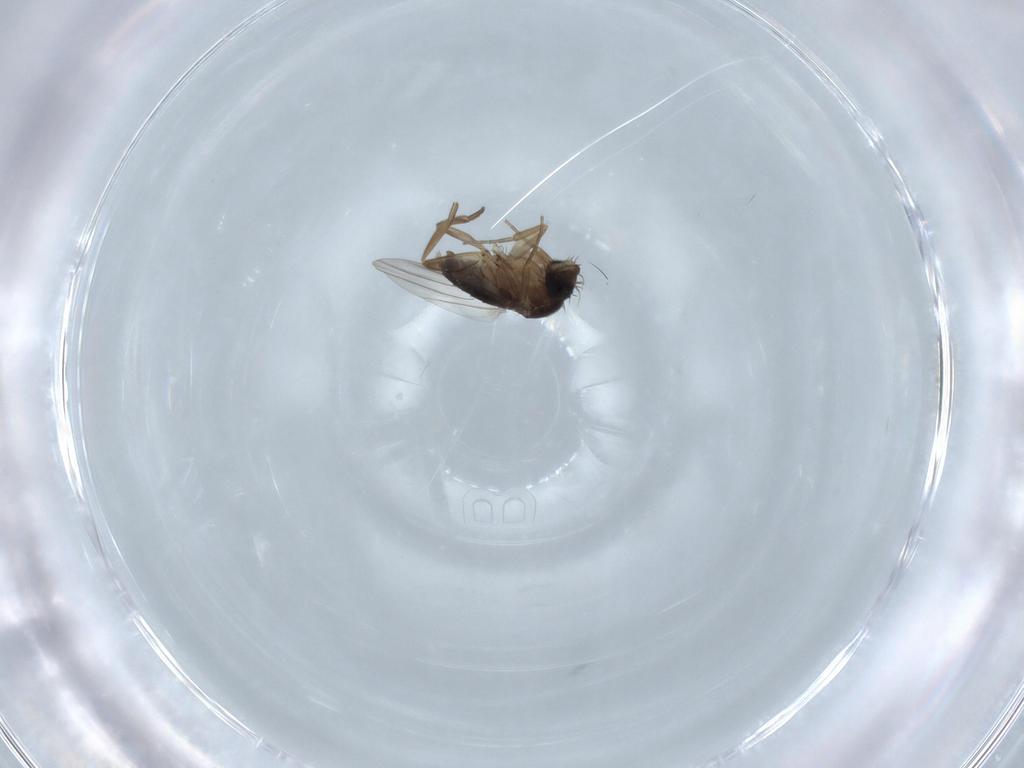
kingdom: Animalia
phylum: Arthropoda
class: Insecta
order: Diptera
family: Phoridae
